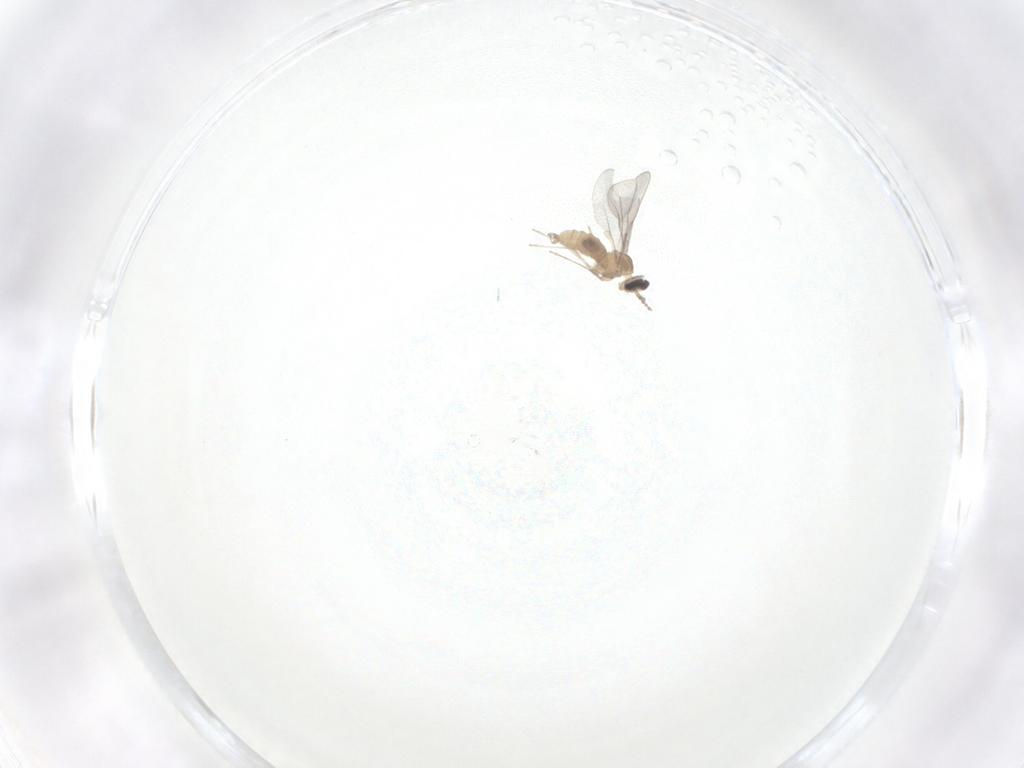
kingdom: Animalia
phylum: Arthropoda
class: Insecta
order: Diptera
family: Cecidomyiidae
